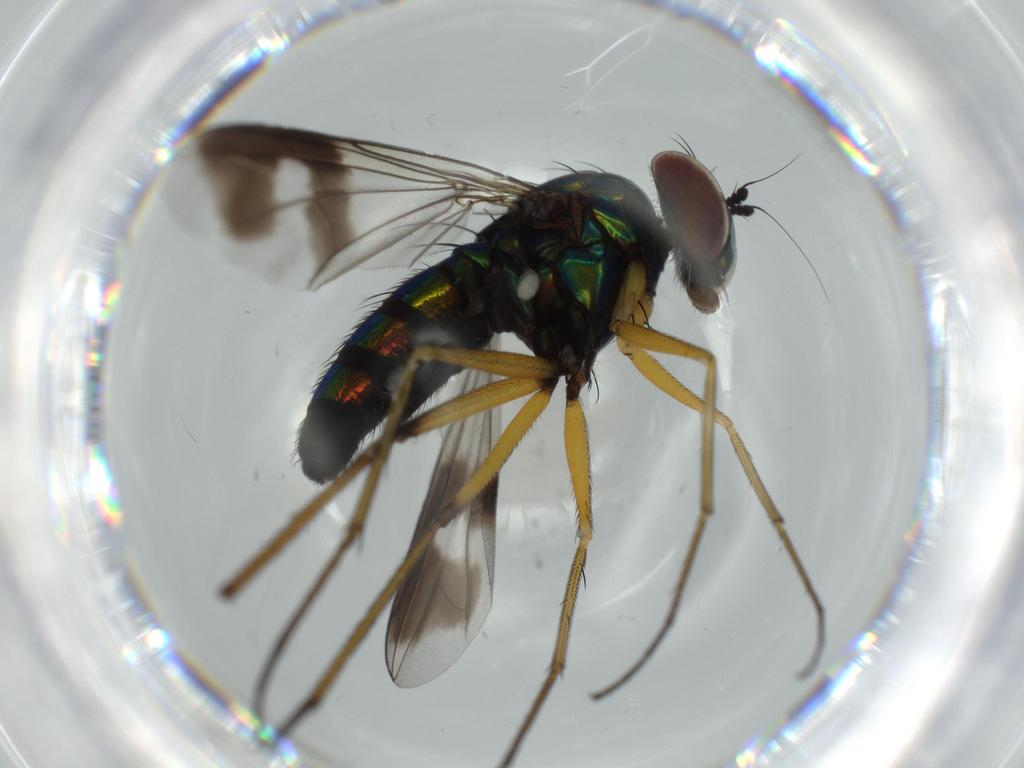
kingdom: Animalia
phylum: Arthropoda
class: Insecta
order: Diptera
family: Dolichopodidae
